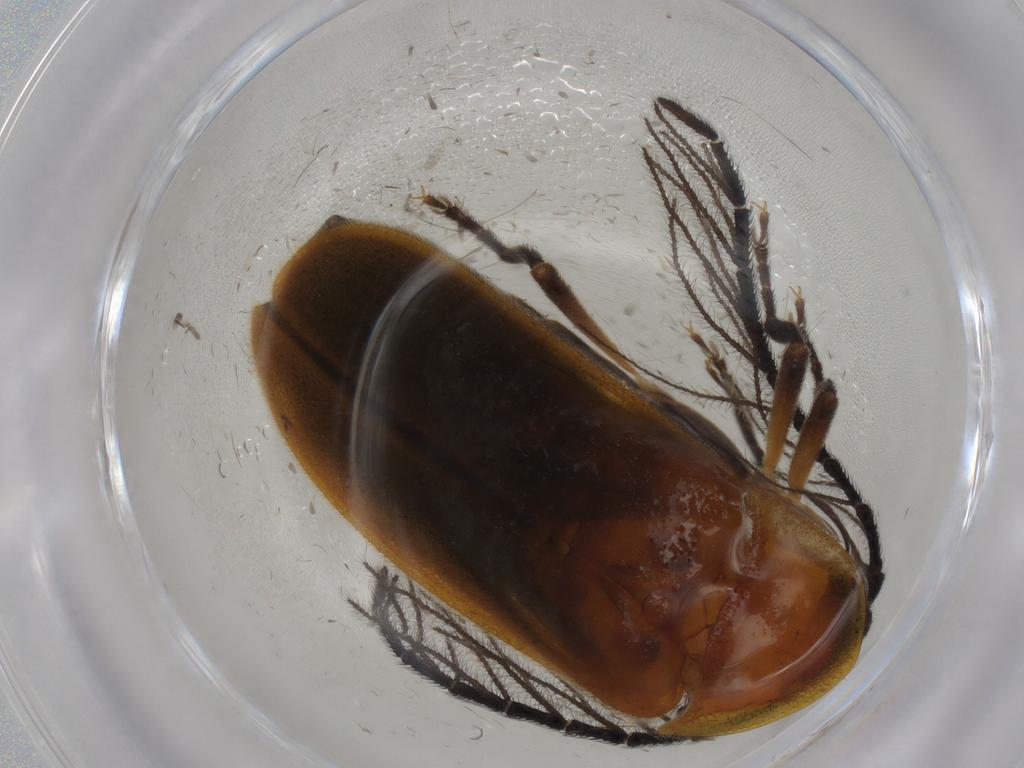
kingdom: Animalia
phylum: Arthropoda
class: Insecta
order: Coleoptera
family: Lampyridae
